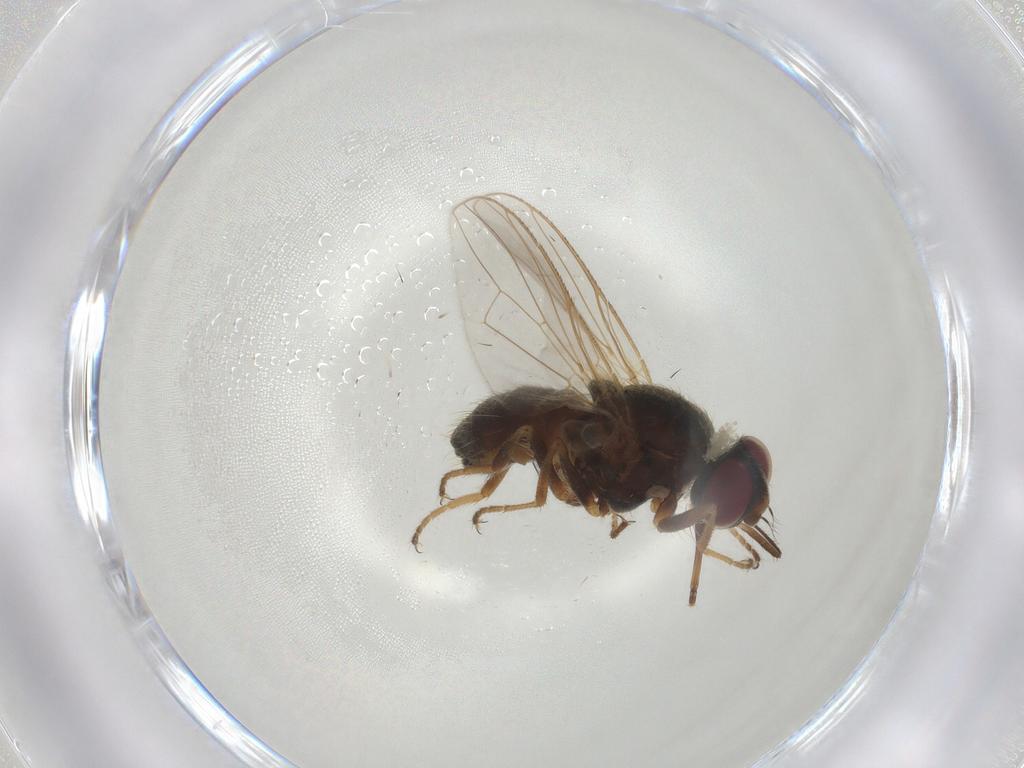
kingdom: Animalia
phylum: Arthropoda
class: Insecta
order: Diptera
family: Muscidae
